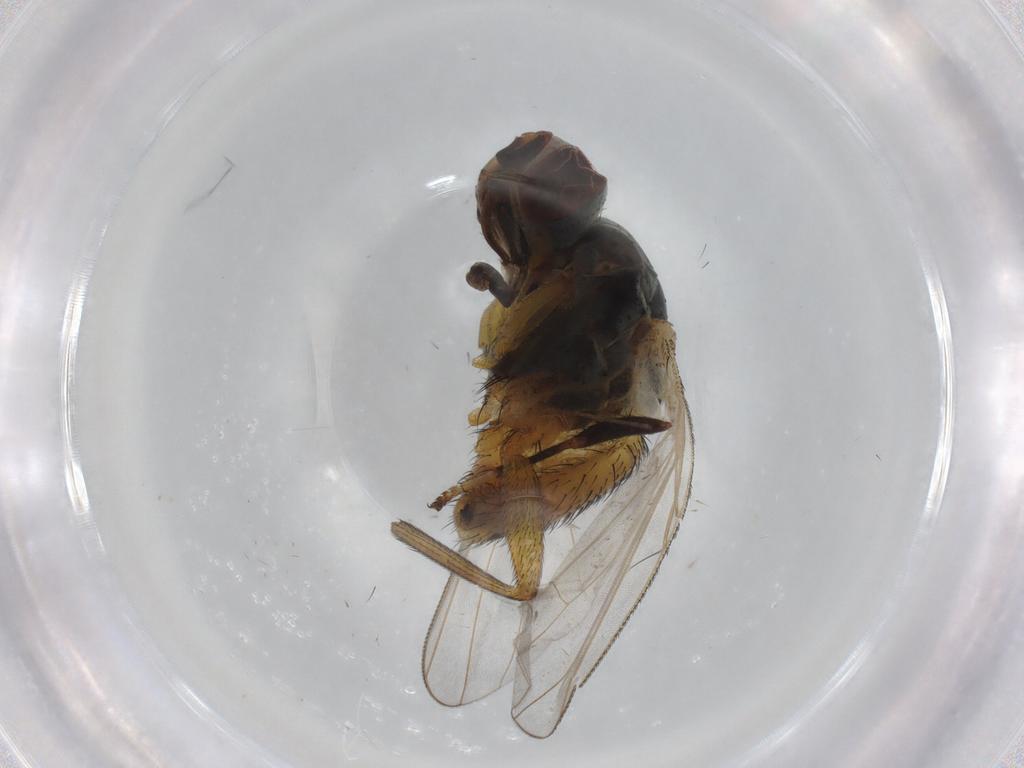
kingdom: Animalia
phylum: Arthropoda
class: Insecta
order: Diptera
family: Muscidae
